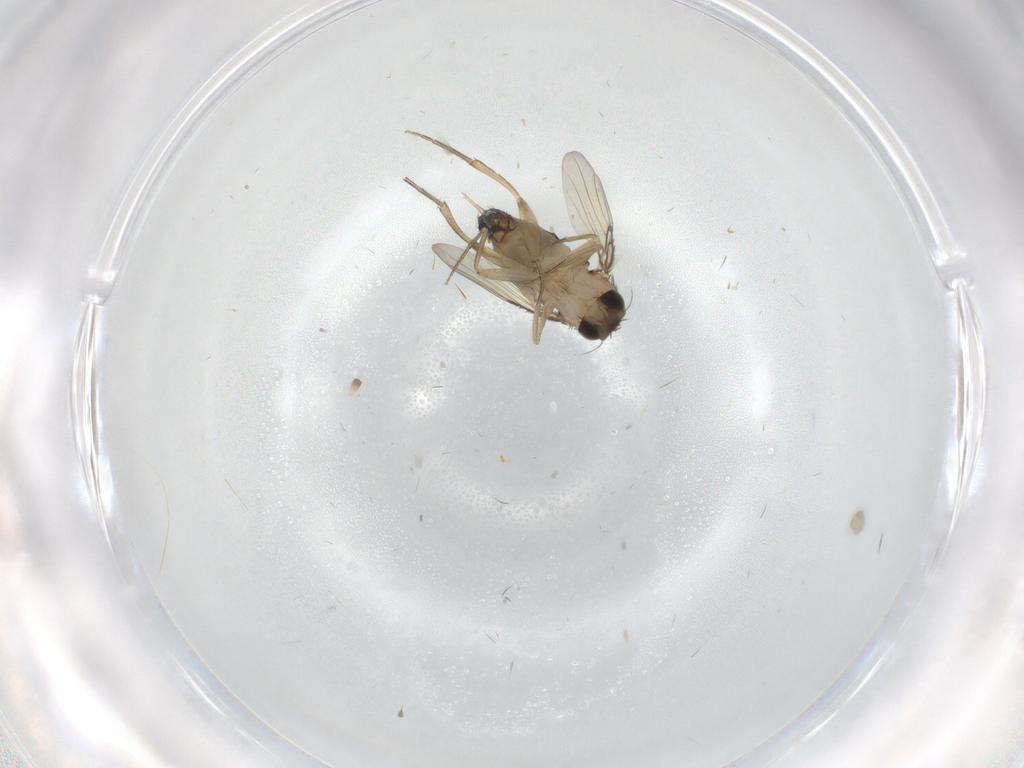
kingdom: Animalia
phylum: Arthropoda
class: Insecta
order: Diptera
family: Phoridae
